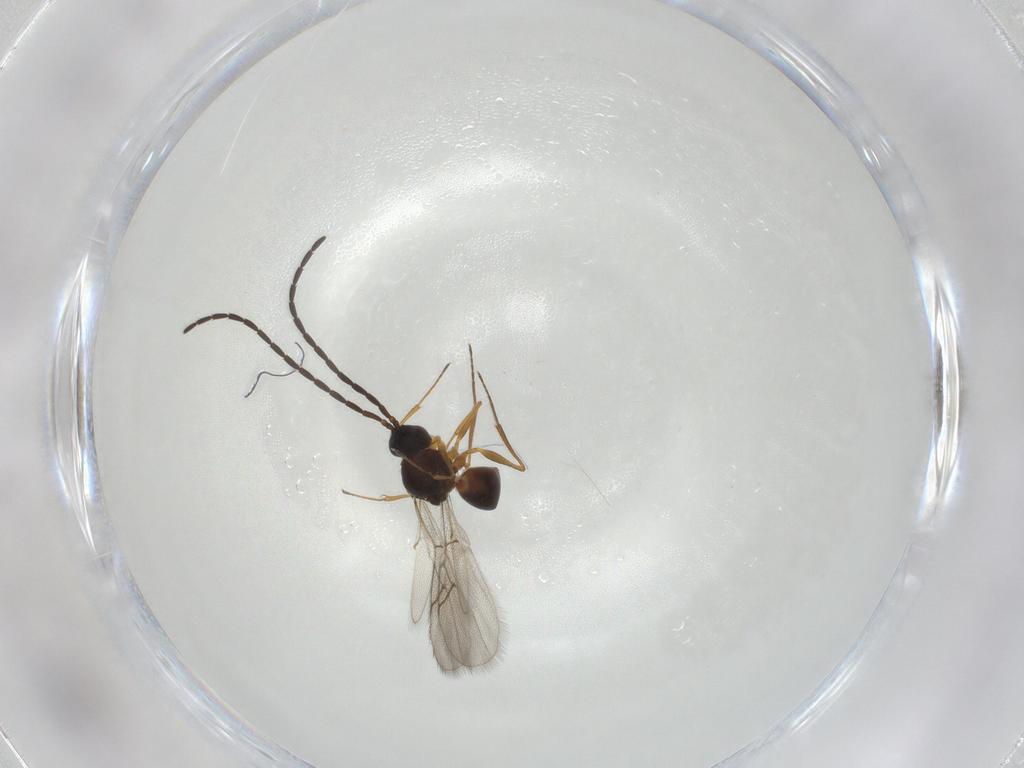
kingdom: Animalia
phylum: Arthropoda
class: Insecta
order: Hymenoptera
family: Figitidae
